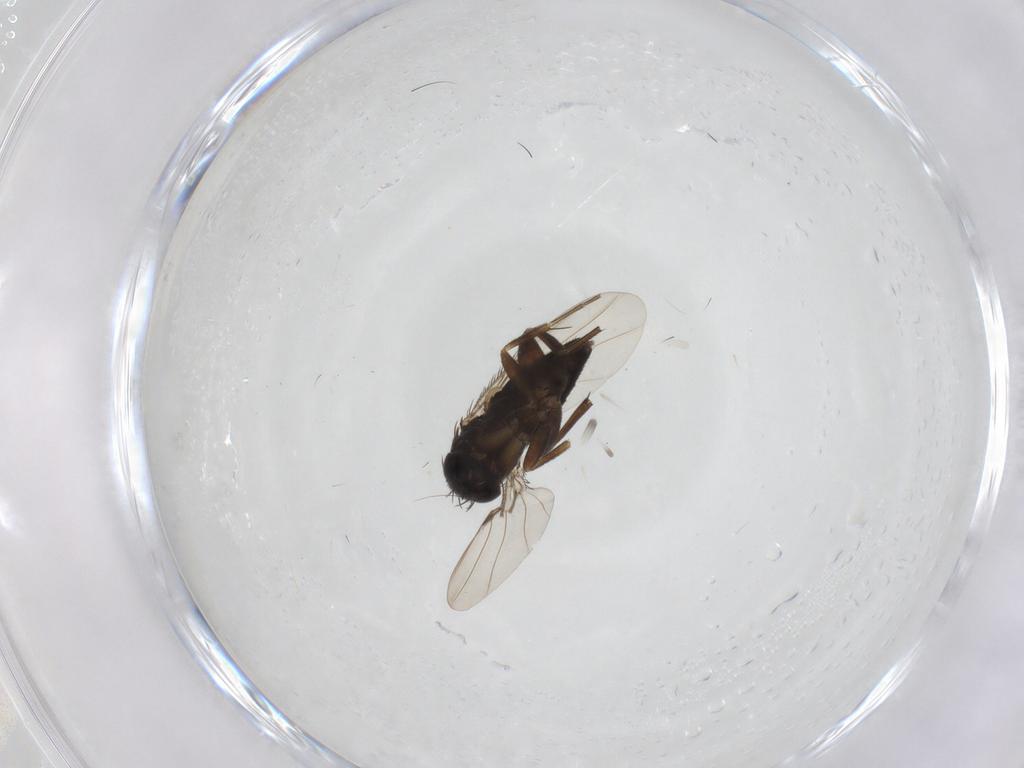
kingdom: Animalia
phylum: Arthropoda
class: Insecta
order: Diptera
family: Phoridae
